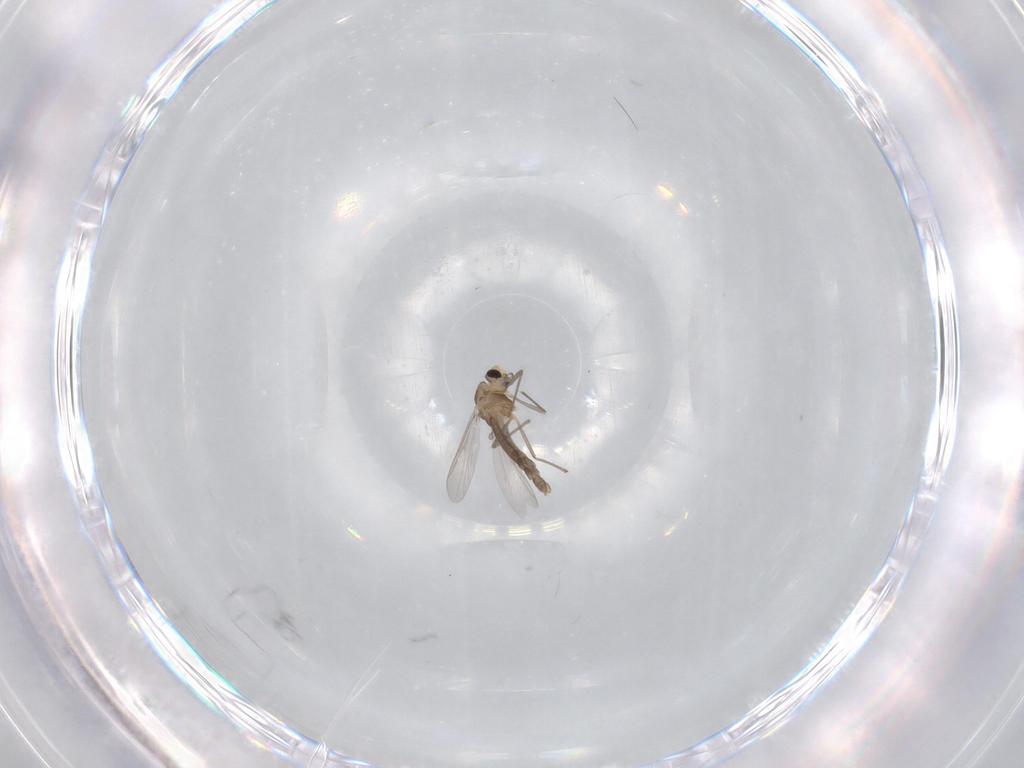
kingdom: Animalia
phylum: Arthropoda
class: Insecta
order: Diptera
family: Chironomidae
